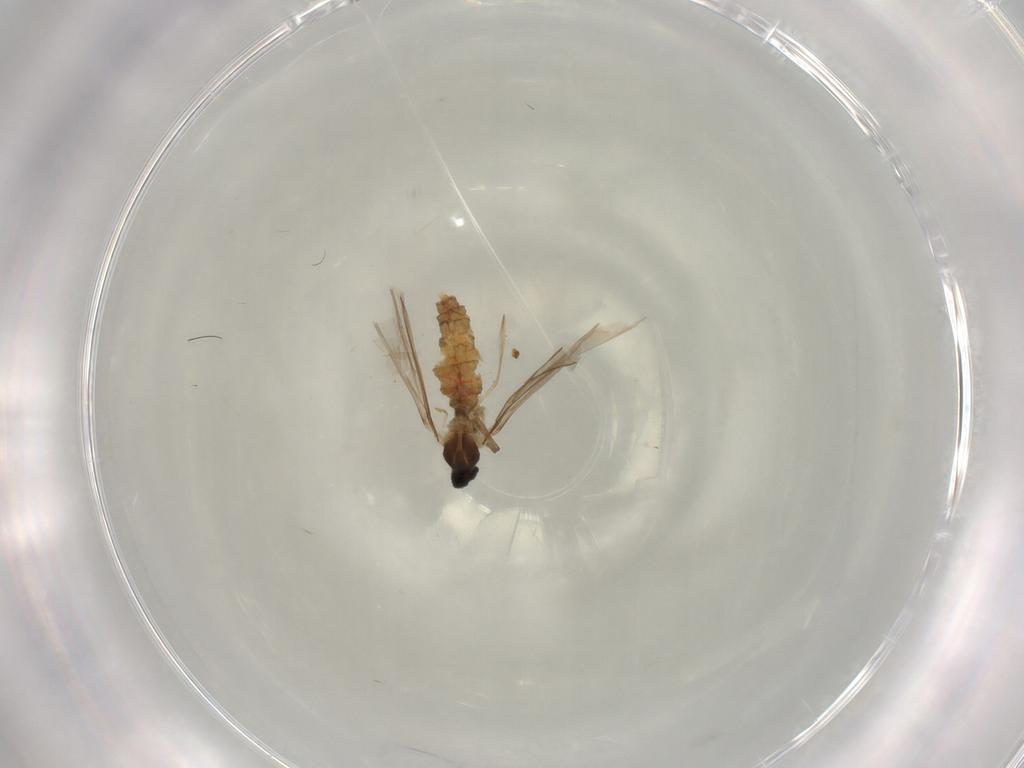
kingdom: Animalia
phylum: Arthropoda
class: Insecta
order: Diptera
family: Cecidomyiidae
